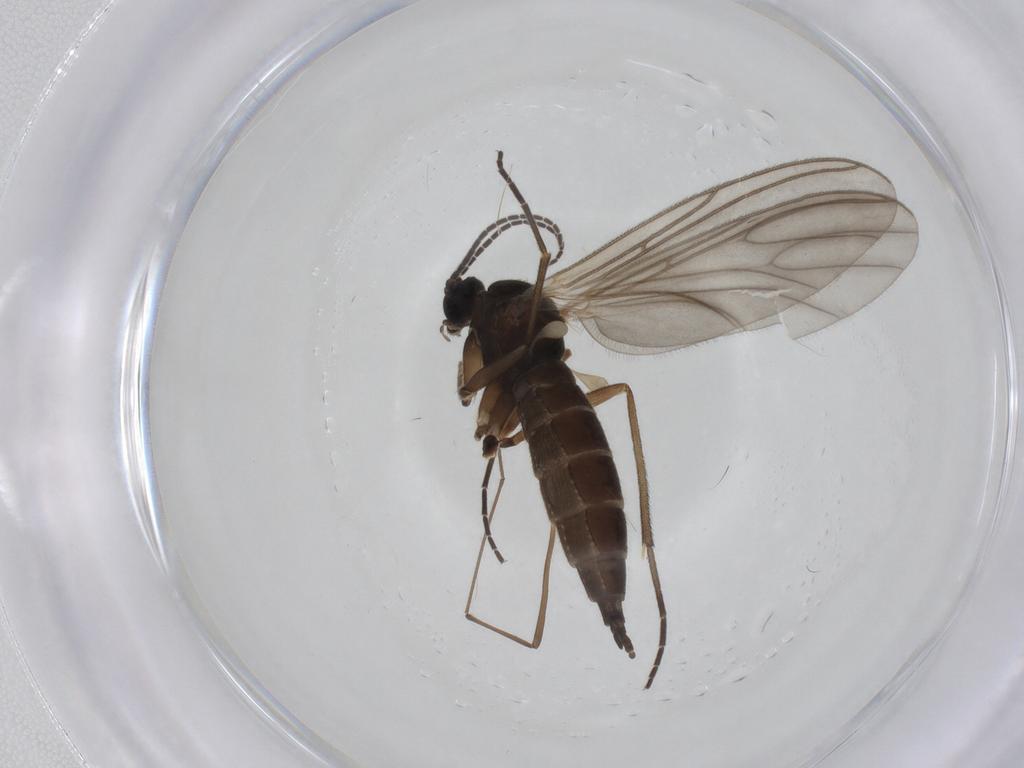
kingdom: Animalia
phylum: Arthropoda
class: Insecta
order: Diptera
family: Sciaridae
